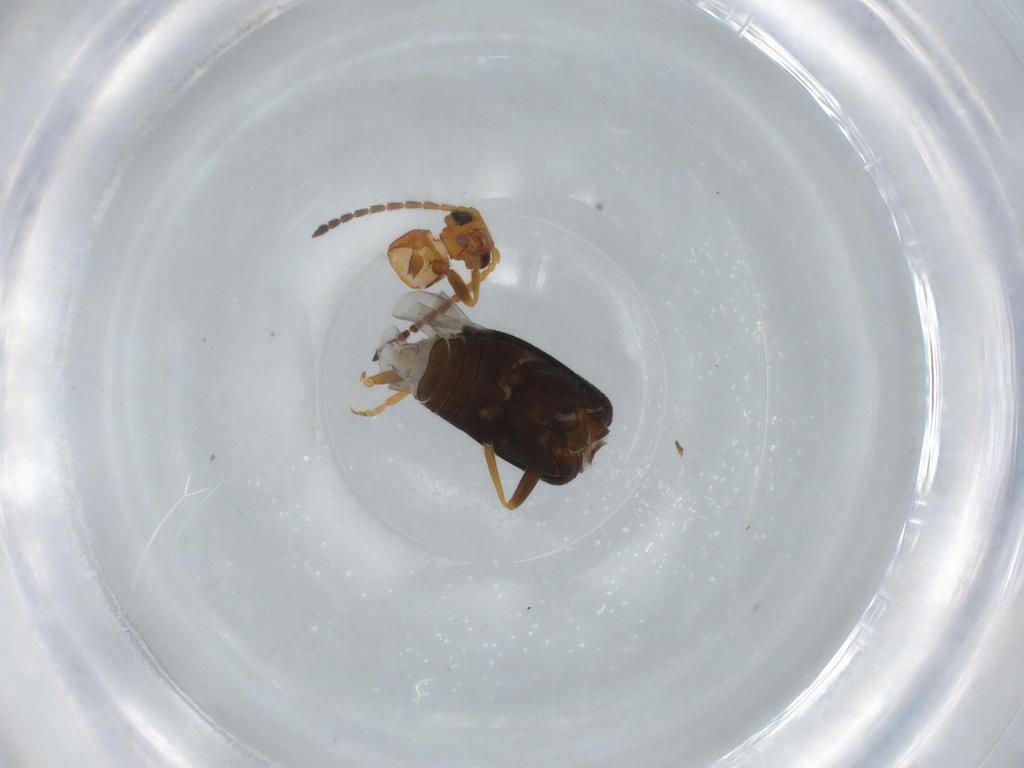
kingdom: Animalia
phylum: Arthropoda
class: Insecta
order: Coleoptera
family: Aderidae
